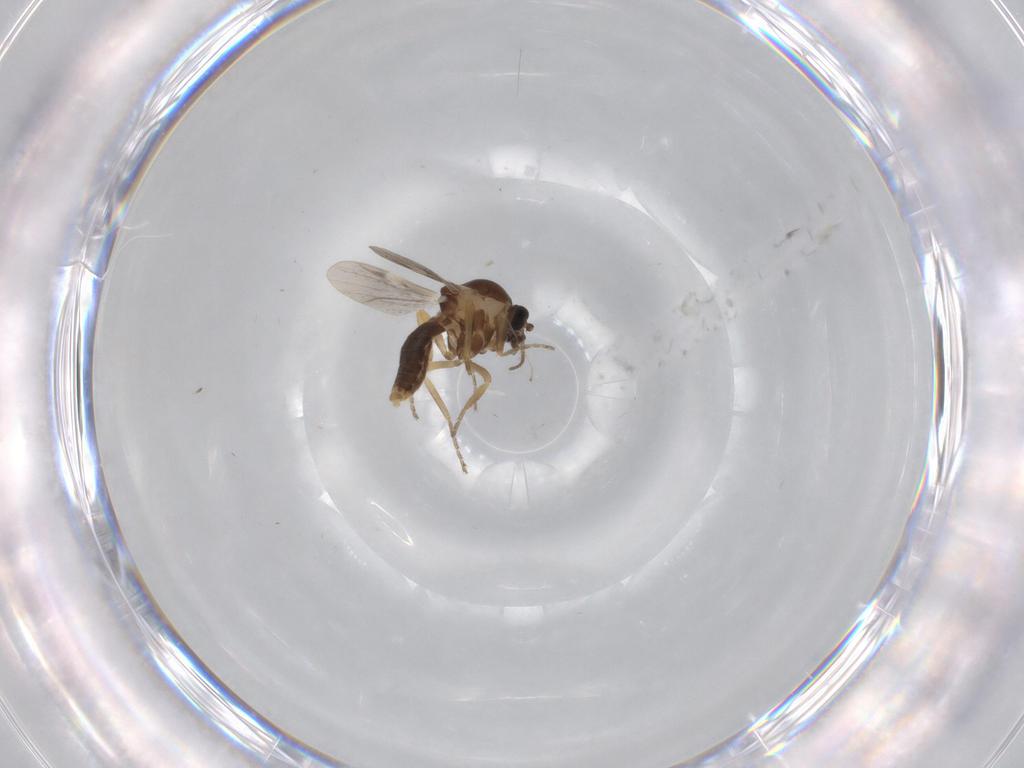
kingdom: Animalia
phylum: Arthropoda
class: Insecta
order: Diptera
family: Ceratopogonidae
